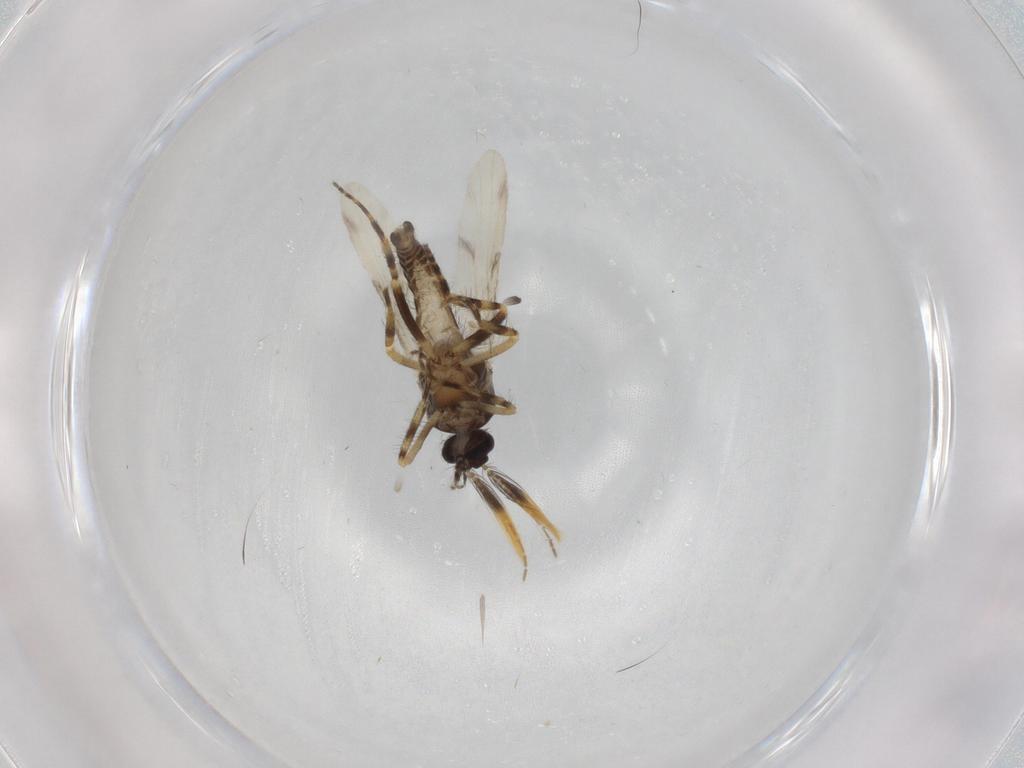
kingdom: Animalia
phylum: Arthropoda
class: Insecta
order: Diptera
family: Ceratopogonidae
